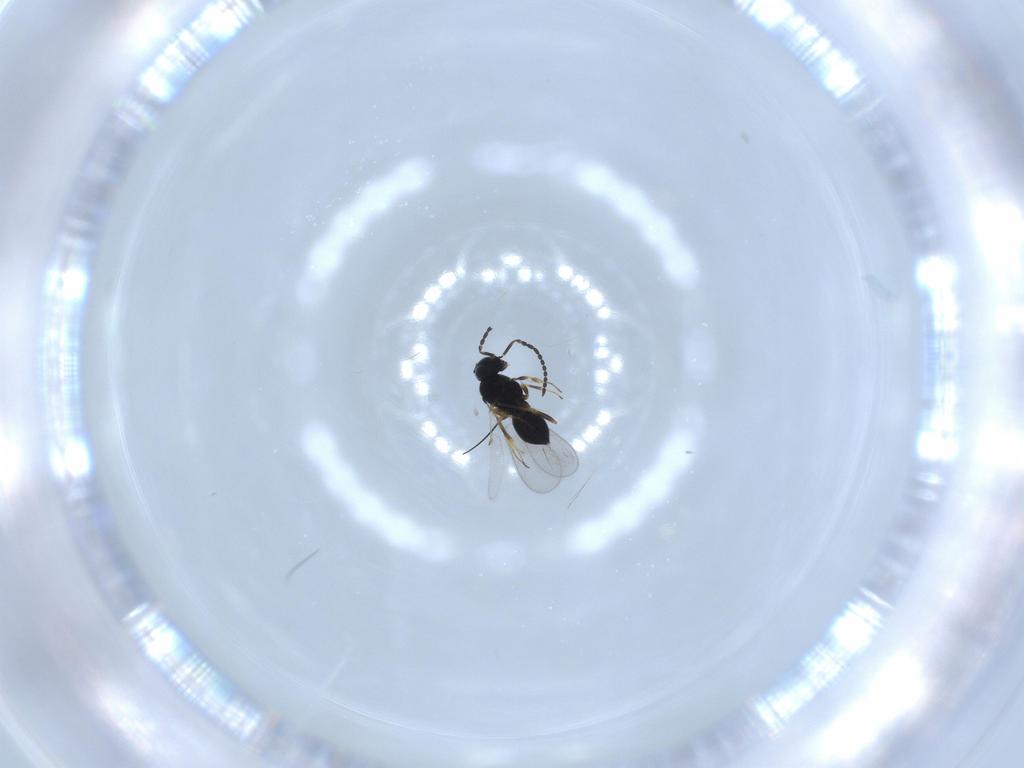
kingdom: Animalia
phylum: Arthropoda
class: Insecta
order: Hymenoptera
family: Scelionidae
